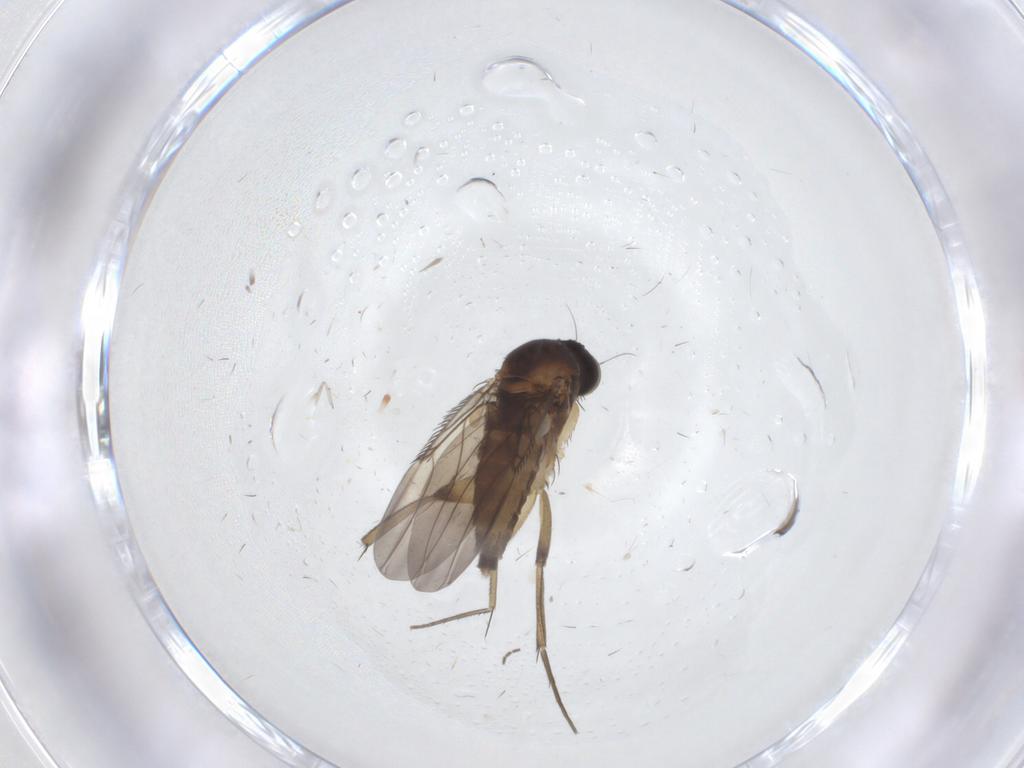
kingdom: Animalia
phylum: Arthropoda
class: Insecta
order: Diptera
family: Phoridae
